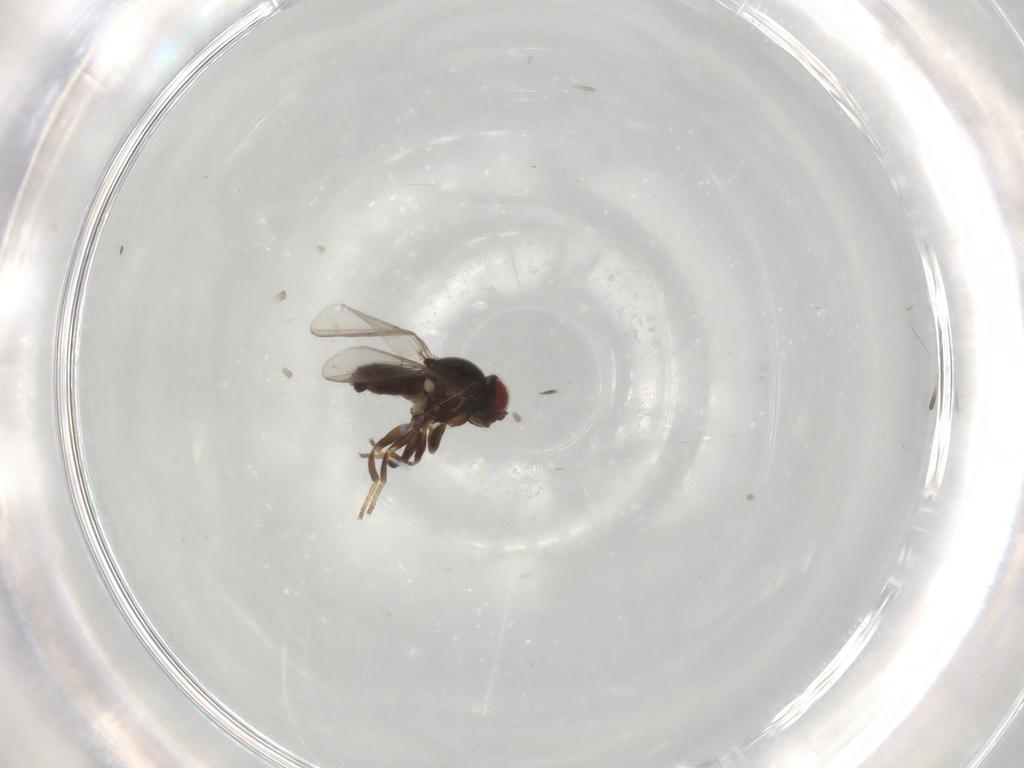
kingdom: Animalia
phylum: Arthropoda
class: Insecta
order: Diptera
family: Chloropidae
